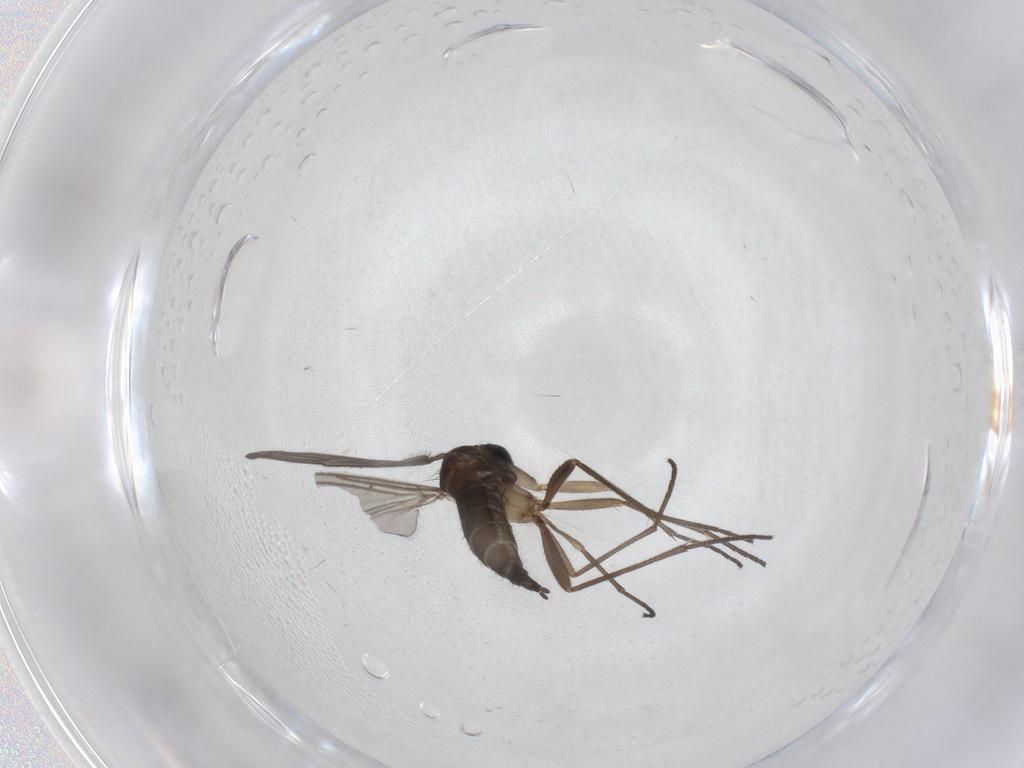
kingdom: Animalia
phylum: Arthropoda
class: Insecta
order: Diptera
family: Sciaridae
